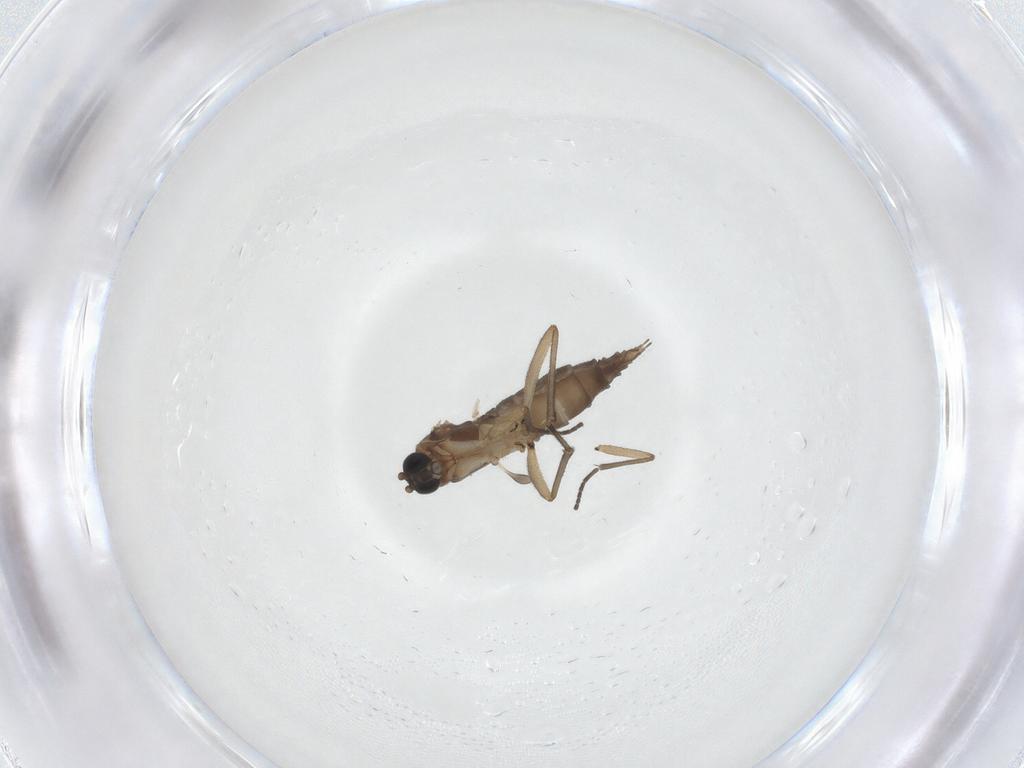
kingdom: Animalia
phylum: Arthropoda
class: Insecta
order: Diptera
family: Sciaridae
